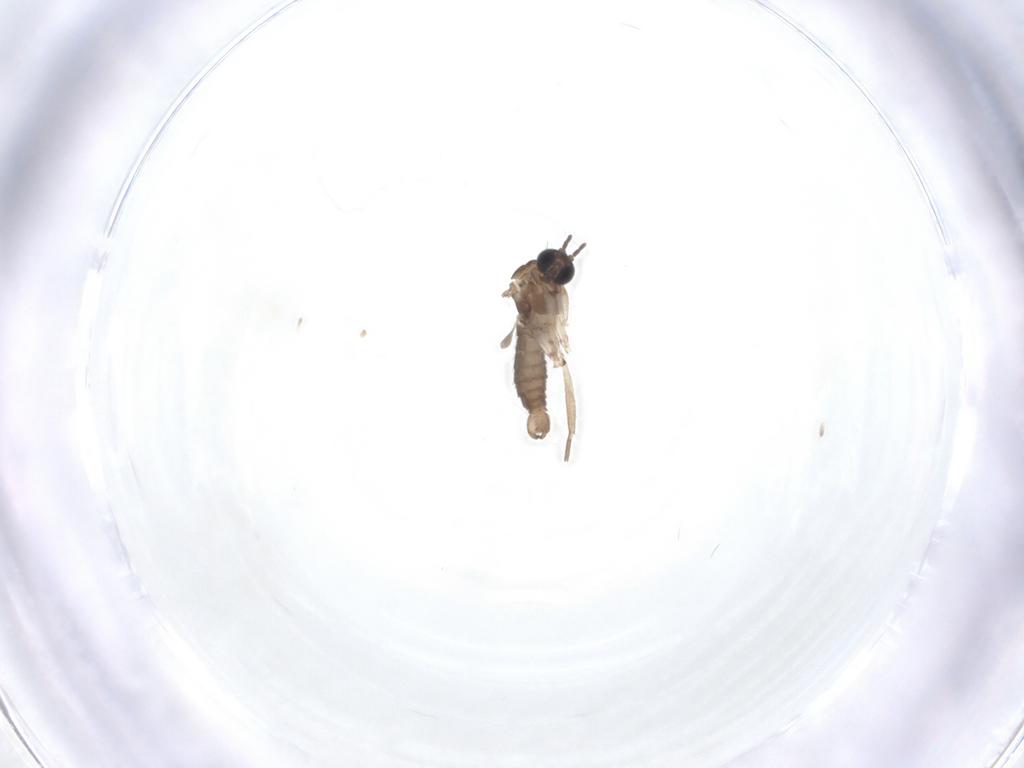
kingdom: Animalia
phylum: Arthropoda
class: Insecta
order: Diptera
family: Sciaridae
